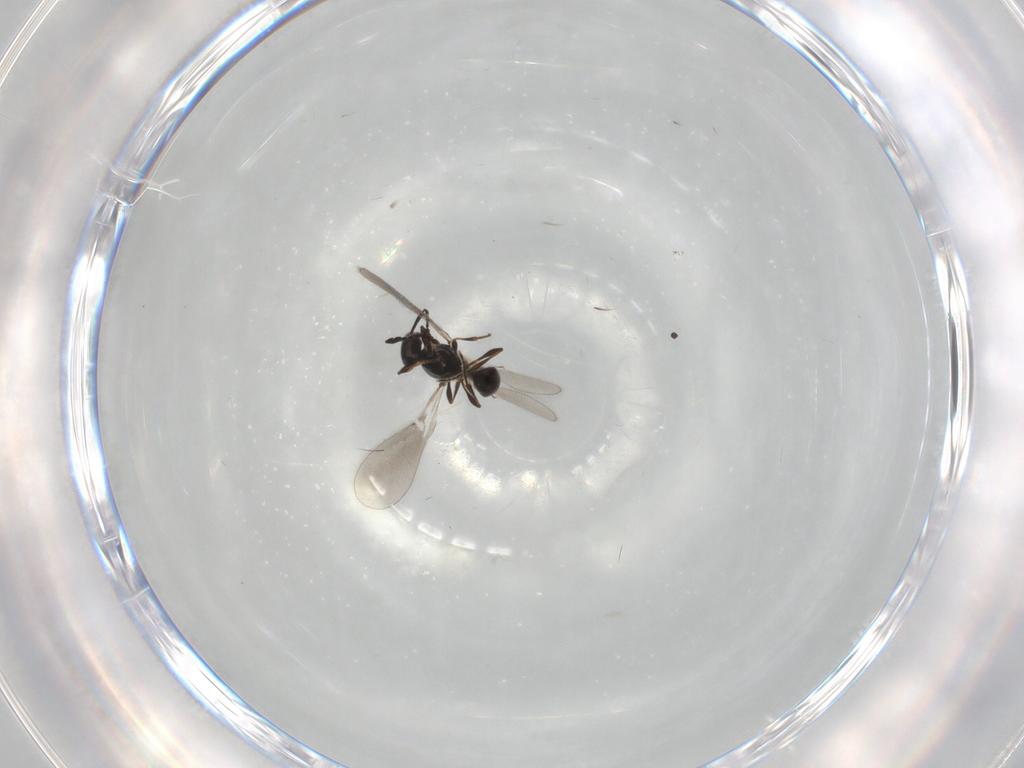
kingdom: Animalia
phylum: Arthropoda
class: Insecta
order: Hymenoptera
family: Platygastridae
